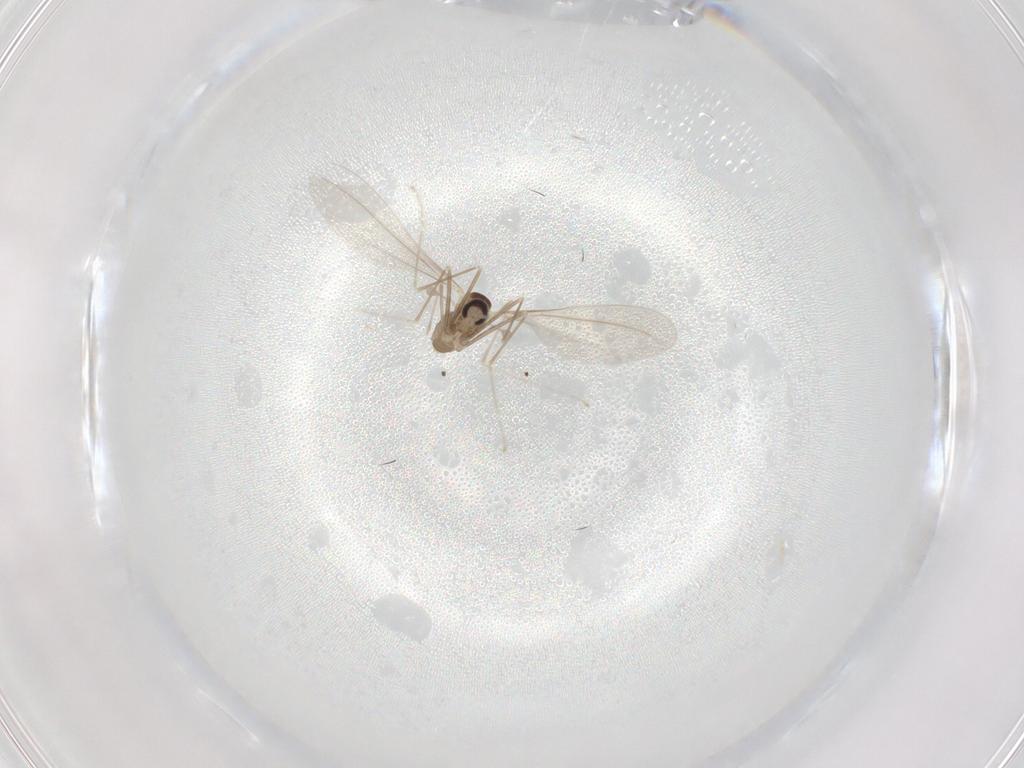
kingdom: Animalia
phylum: Arthropoda
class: Insecta
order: Diptera
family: Cecidomyiidae
